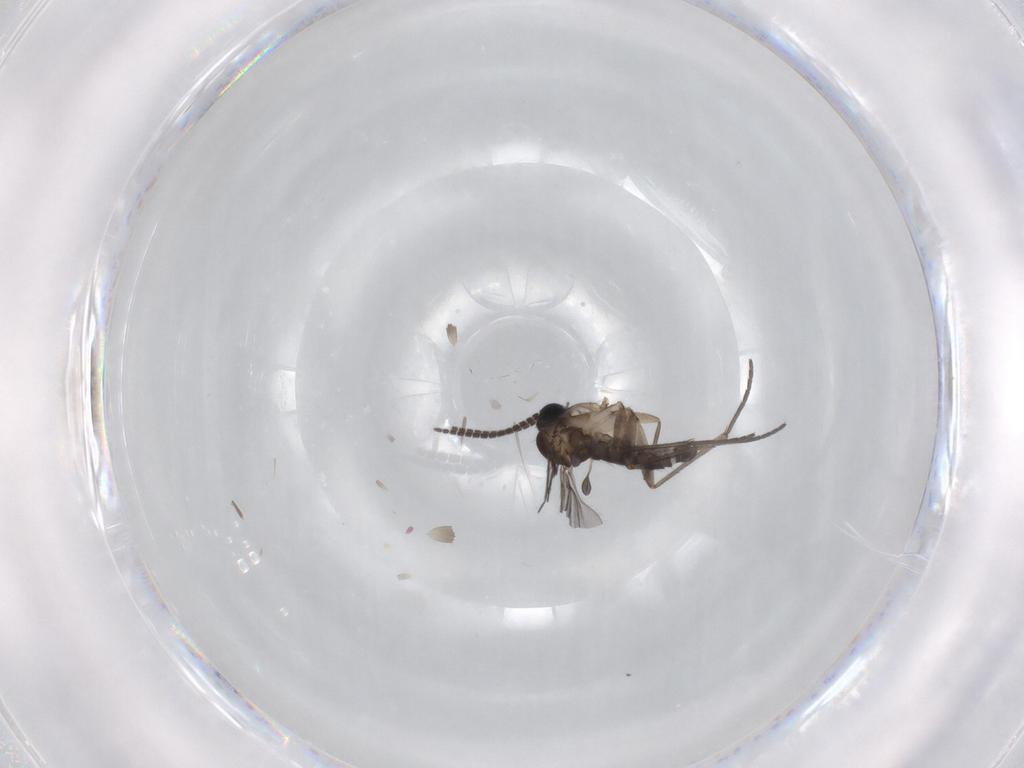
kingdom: Animalia
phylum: Arthropoda
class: Insecta
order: Diptera
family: Sciaridae
